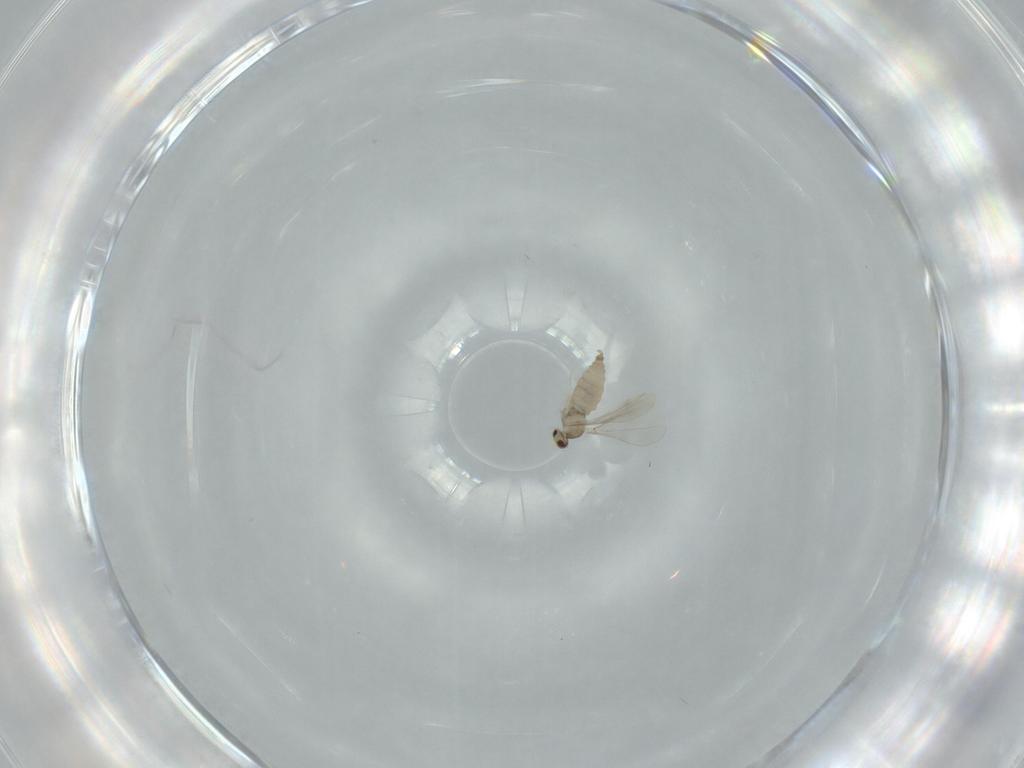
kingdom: Animalia
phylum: Arthropoda
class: Insecta
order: Diptera
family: Cecidomyiidae
